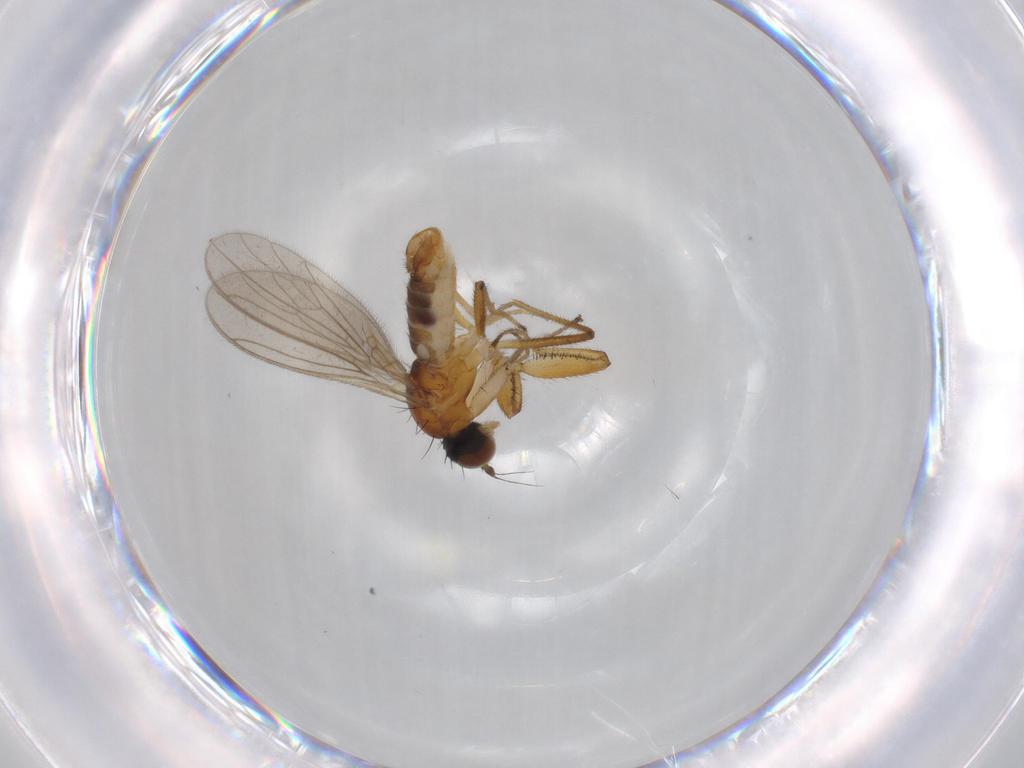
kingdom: Animalia
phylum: Arthropoda
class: Insecta
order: Diptera
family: Empididae
